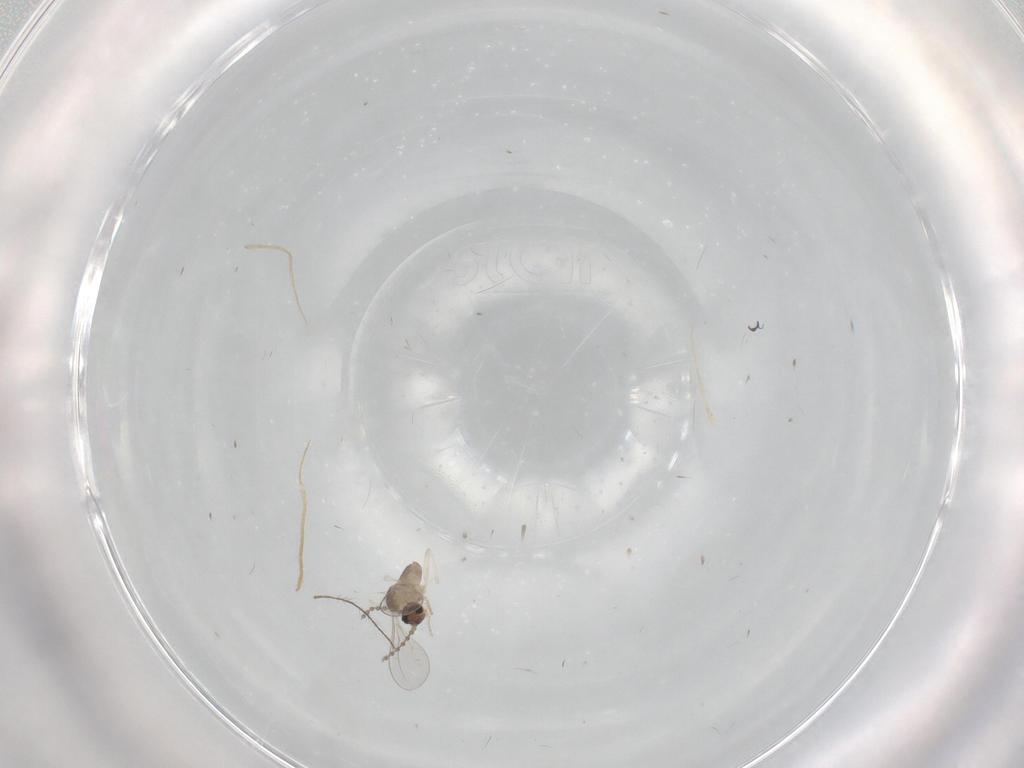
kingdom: Animalia
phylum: Arthropoda
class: Insecta
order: Diptera
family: Cecidomyiidae
